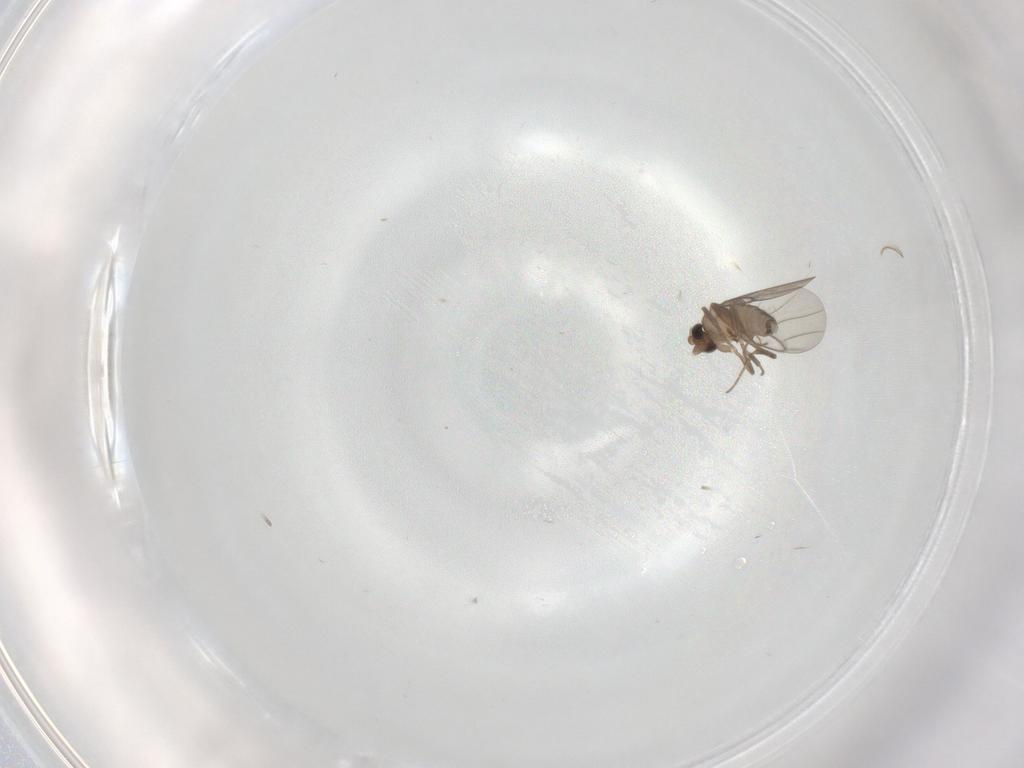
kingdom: Animalia
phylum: Arthropoda
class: Insecta
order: Diptera
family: Chironomidae
